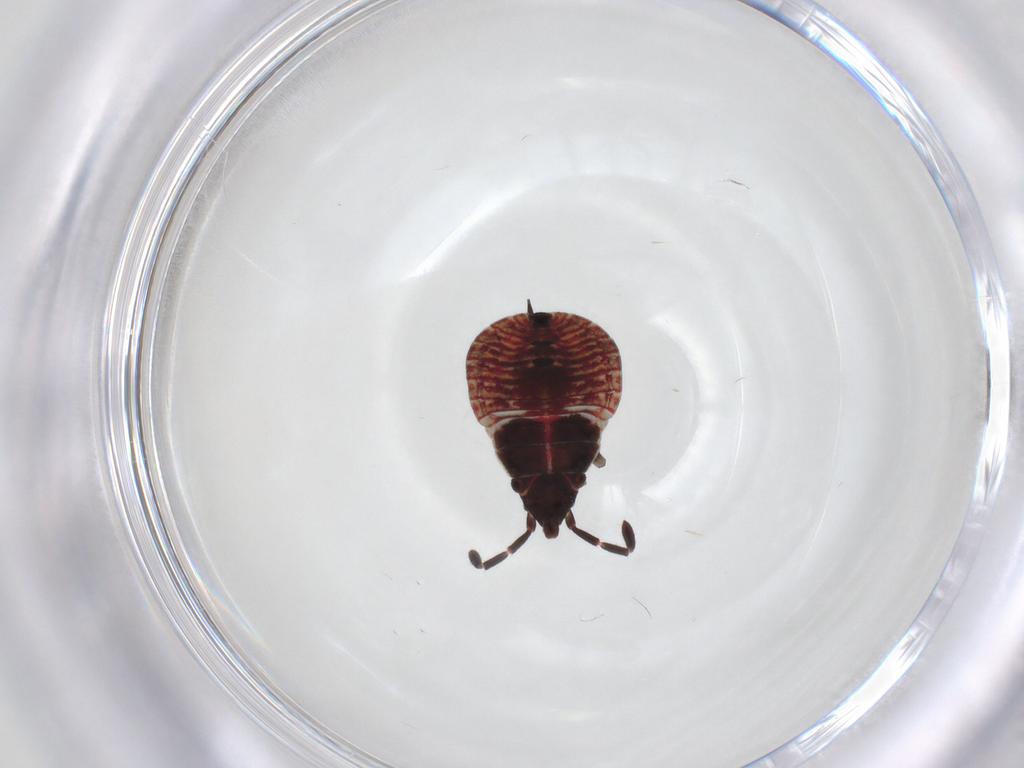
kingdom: Animalia
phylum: Arthropoda
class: Insecta
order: Hemiptera
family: Rhyparochromidae
